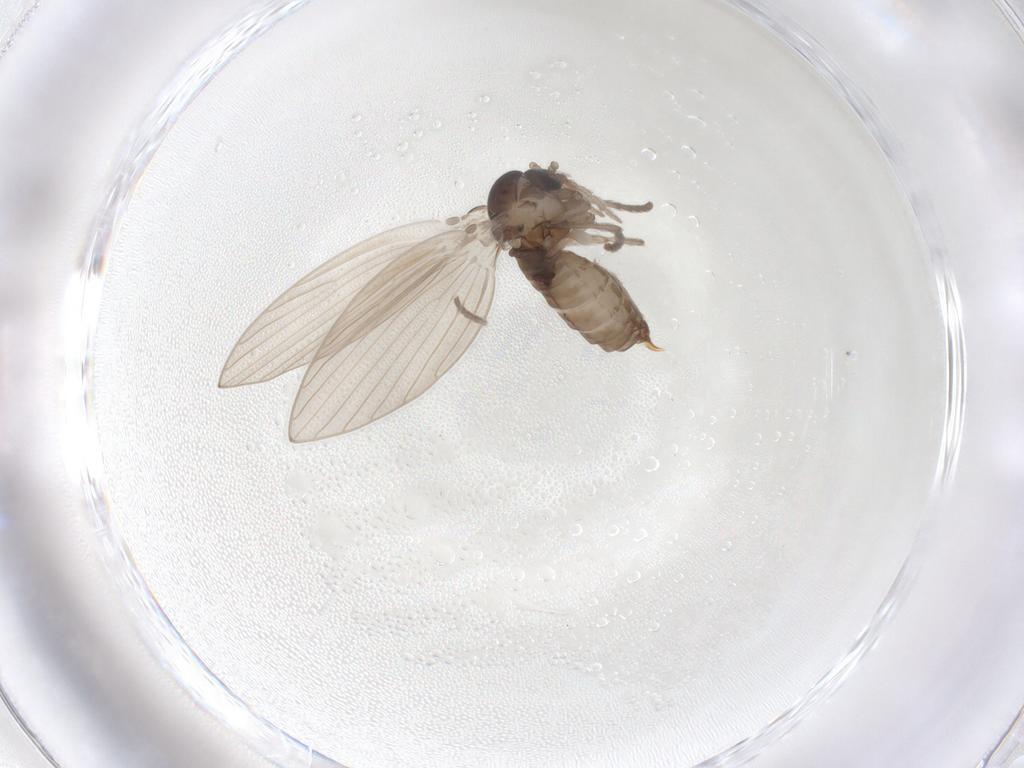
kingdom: Animalia
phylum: Arthropoda
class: Insecta
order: Diptera
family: Psychodidae
